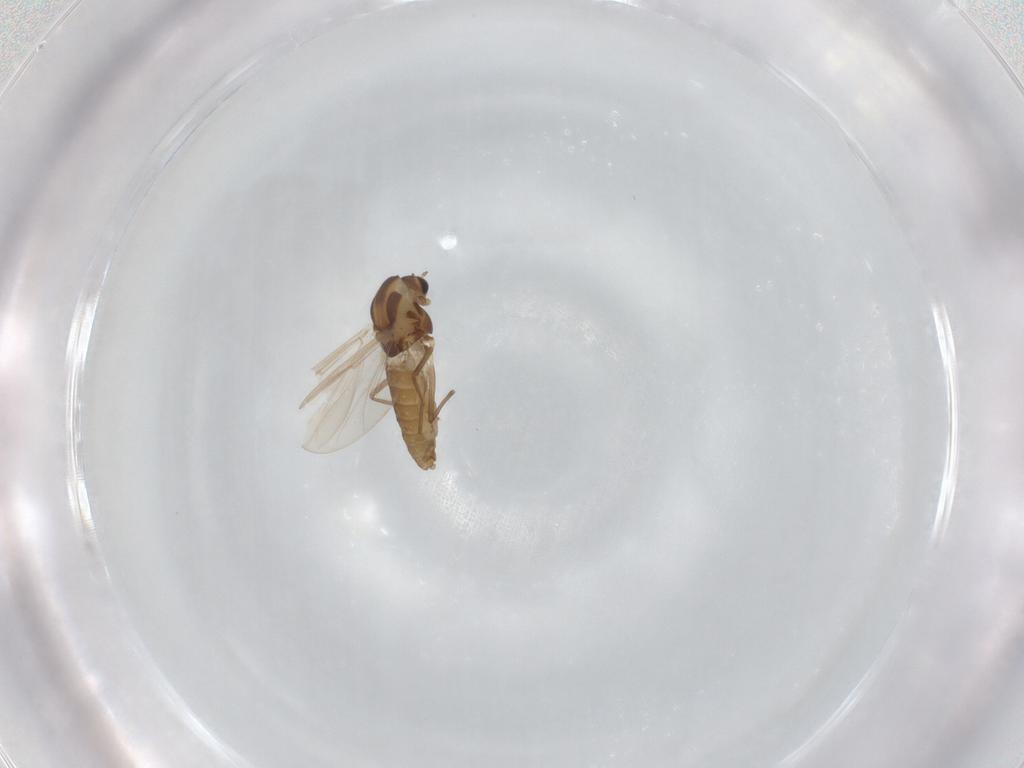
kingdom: Animalia
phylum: Arthropoda
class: Insecta
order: Diptera
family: Chironomidae
